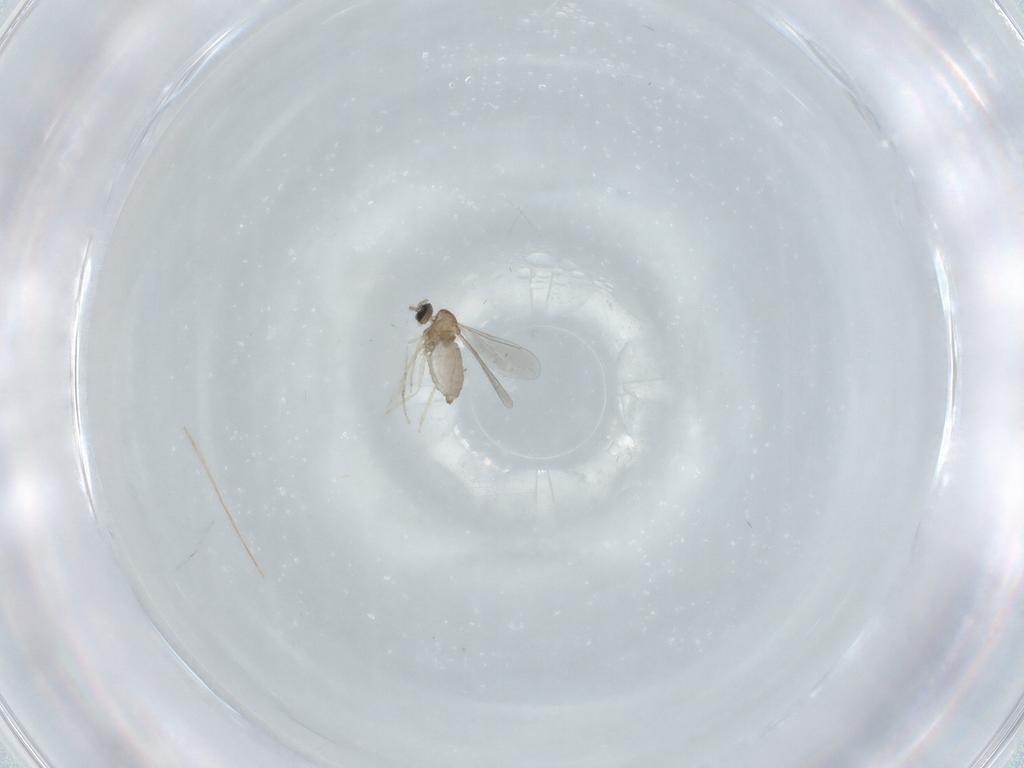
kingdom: Animalia
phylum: Arthropoda
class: Insecta
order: Diptera
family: Cecidomyiidae
